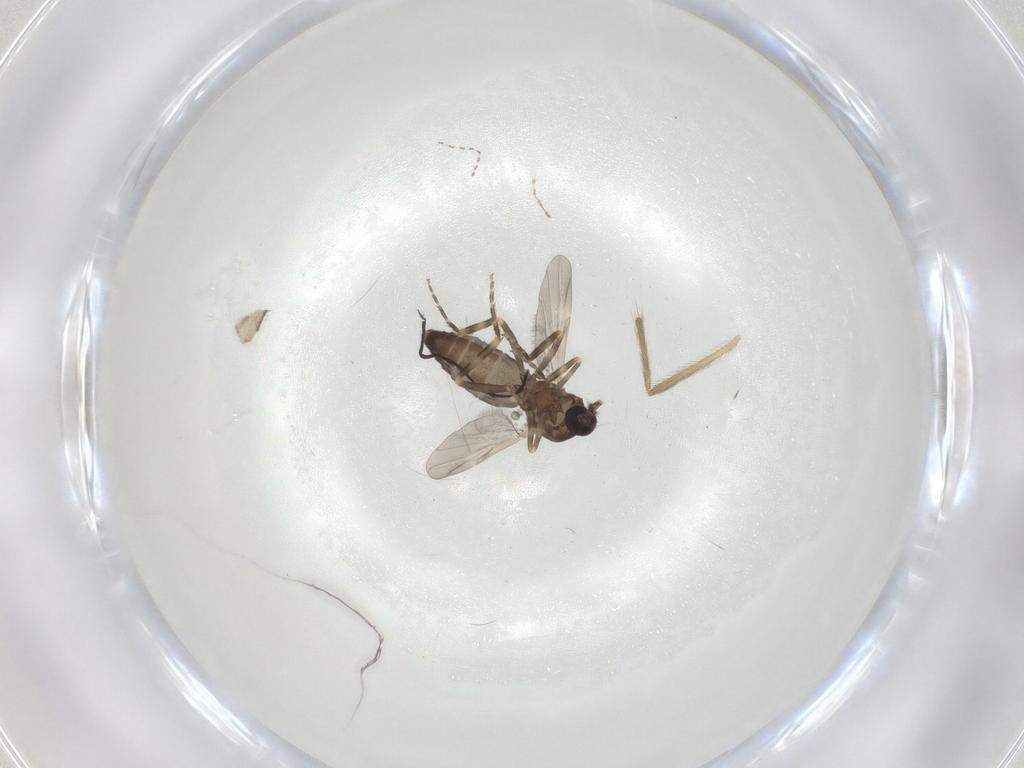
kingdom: Animalia
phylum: Arthropoda
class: Insecta
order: Diptera
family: Ceratopogonidae
